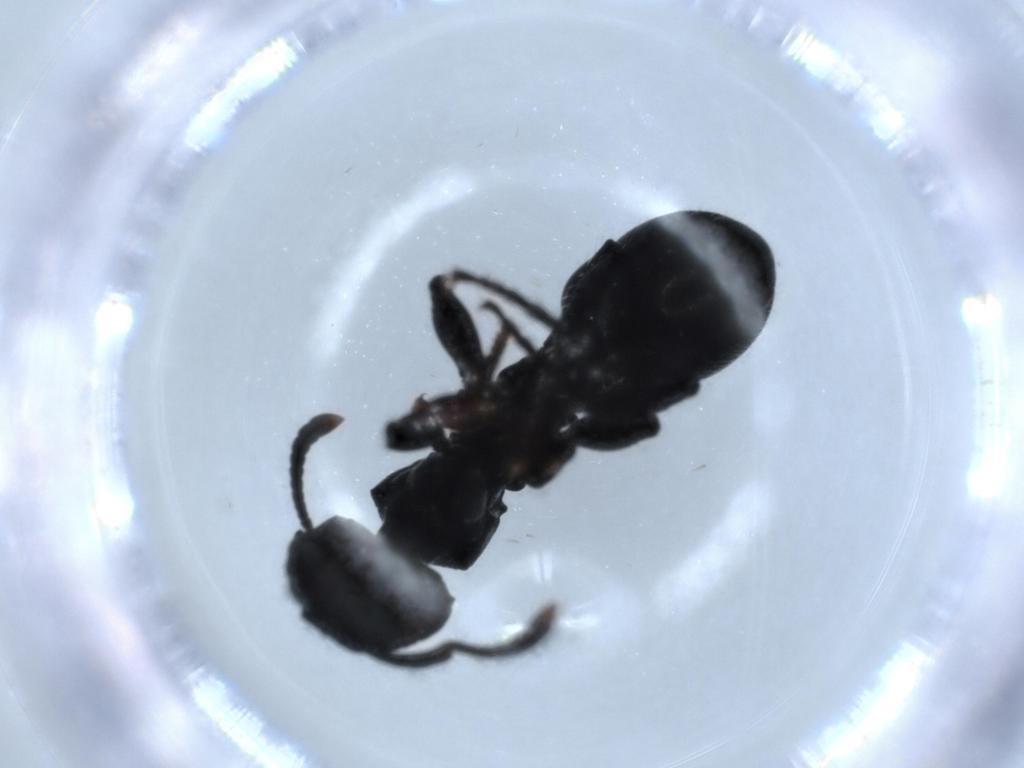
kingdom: Animalia
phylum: Arthropoda
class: Insecta
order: Hymenoptera
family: Formicidae
